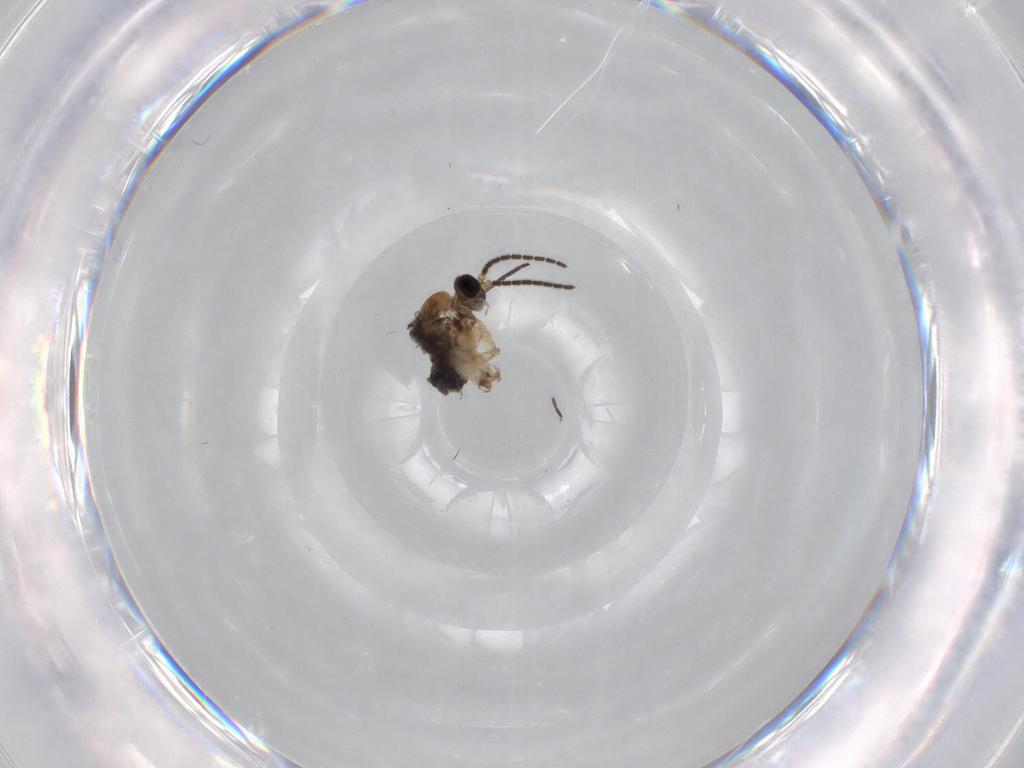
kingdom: Animalia
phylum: Arthropoda
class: Insecta
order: Diptera
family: Sciaridae
